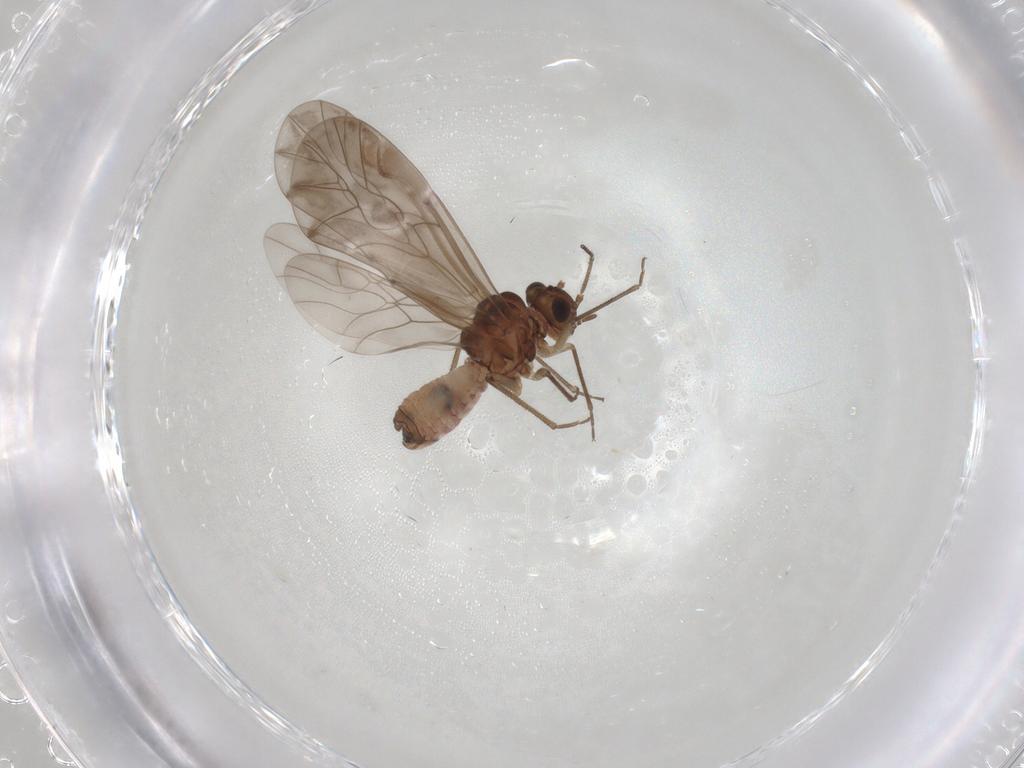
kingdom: Animalia
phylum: Arthropoda
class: Insecta
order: Psocodea
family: Peripsocidae
